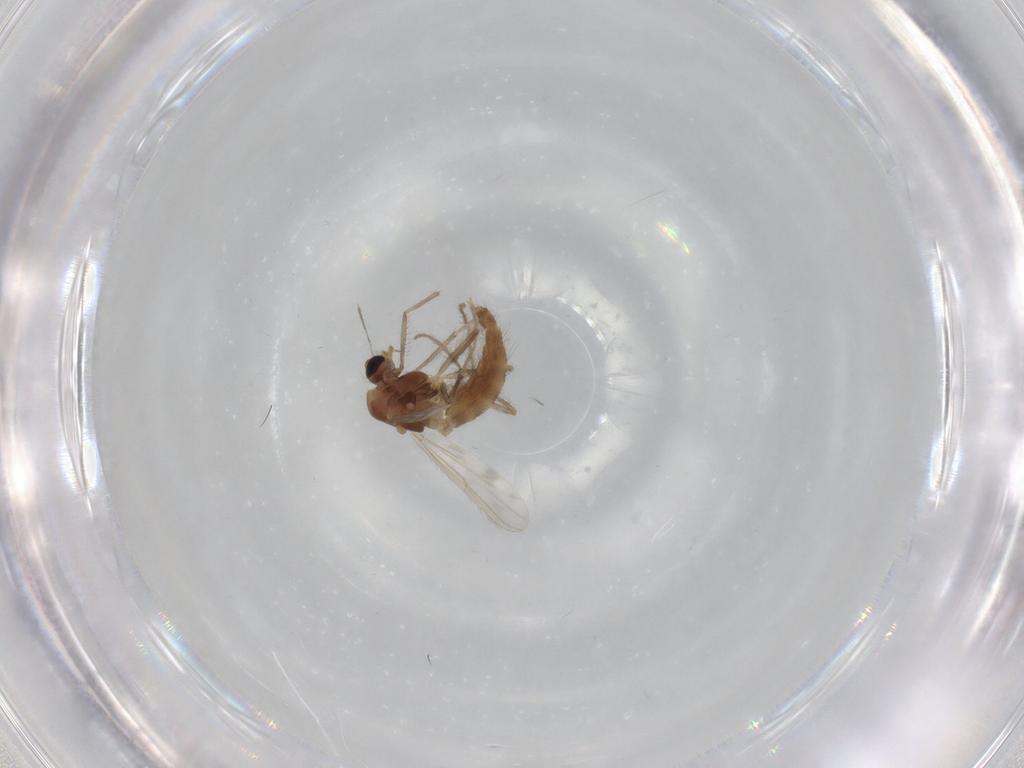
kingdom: Animalia
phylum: Arthropoda
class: Insecta
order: Diptera
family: Chironomidae
